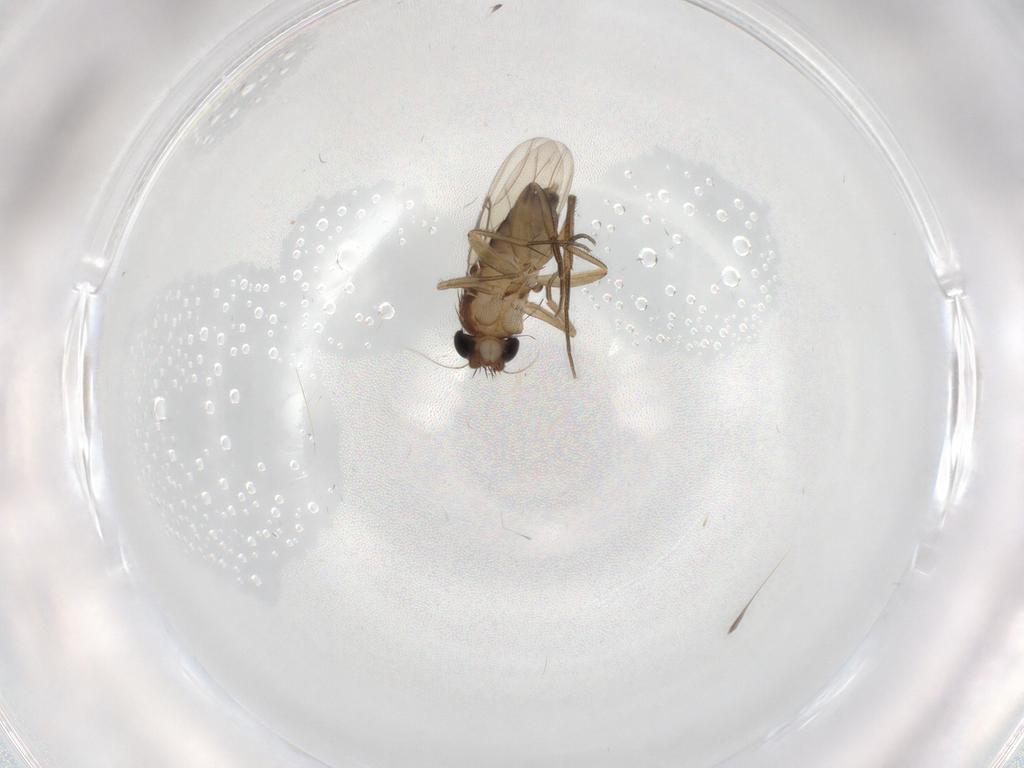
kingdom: Animalia
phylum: Arthropoda
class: Insecta
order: Diptera
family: Phoridae
